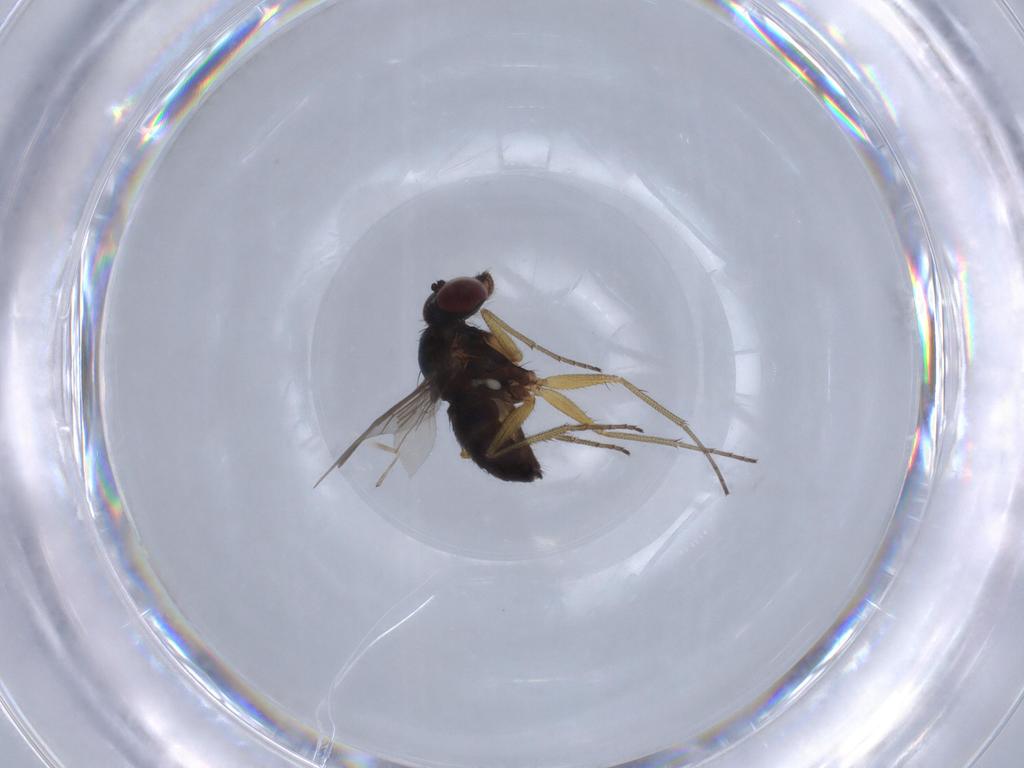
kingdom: Animalia
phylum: Arthropoda
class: Insecta
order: Diptera
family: Dolichopodidae
